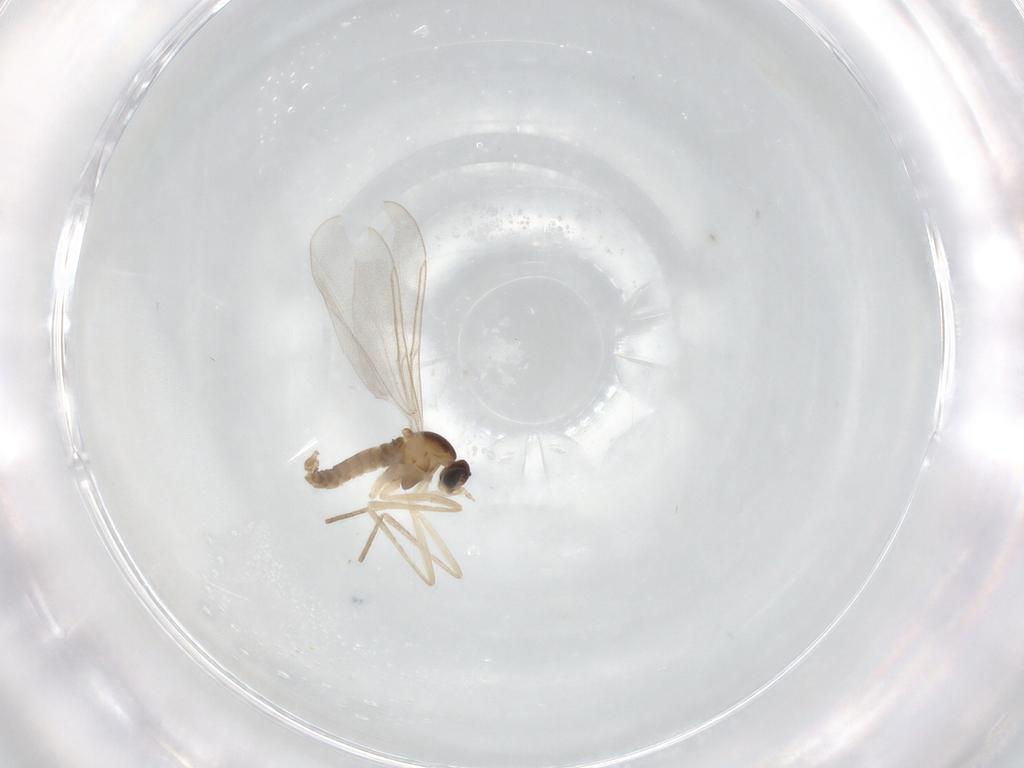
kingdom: Animalia
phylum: Arthropoda
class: Insecta
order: Diptera
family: Cecidomyiidae
